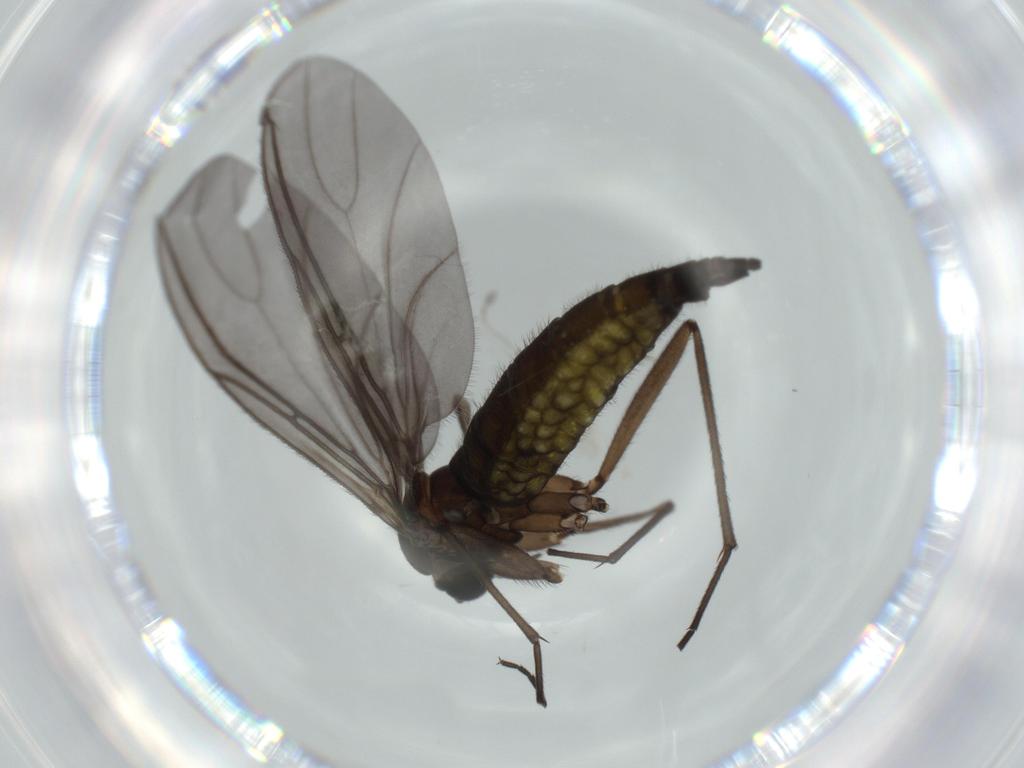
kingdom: Animalia
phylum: Arthropoda
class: Insecta
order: Diptera
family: Sciaridae
